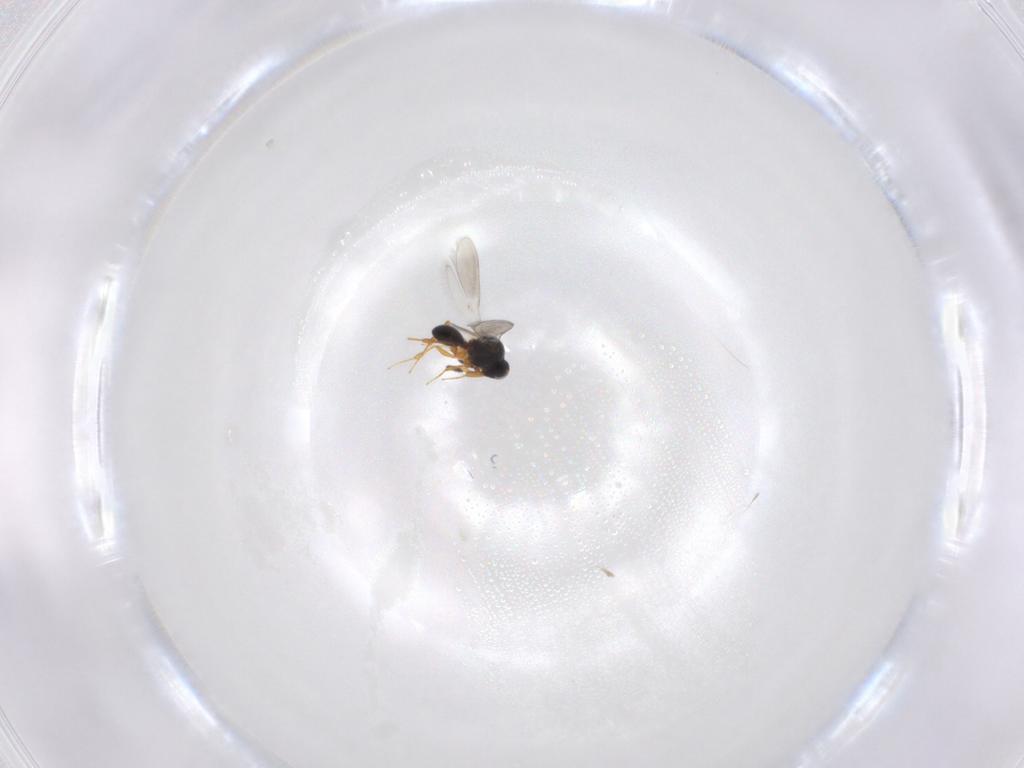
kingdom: Animalia
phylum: Arthropoda
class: Insecta
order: Hymenoptera
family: Platygastridae
